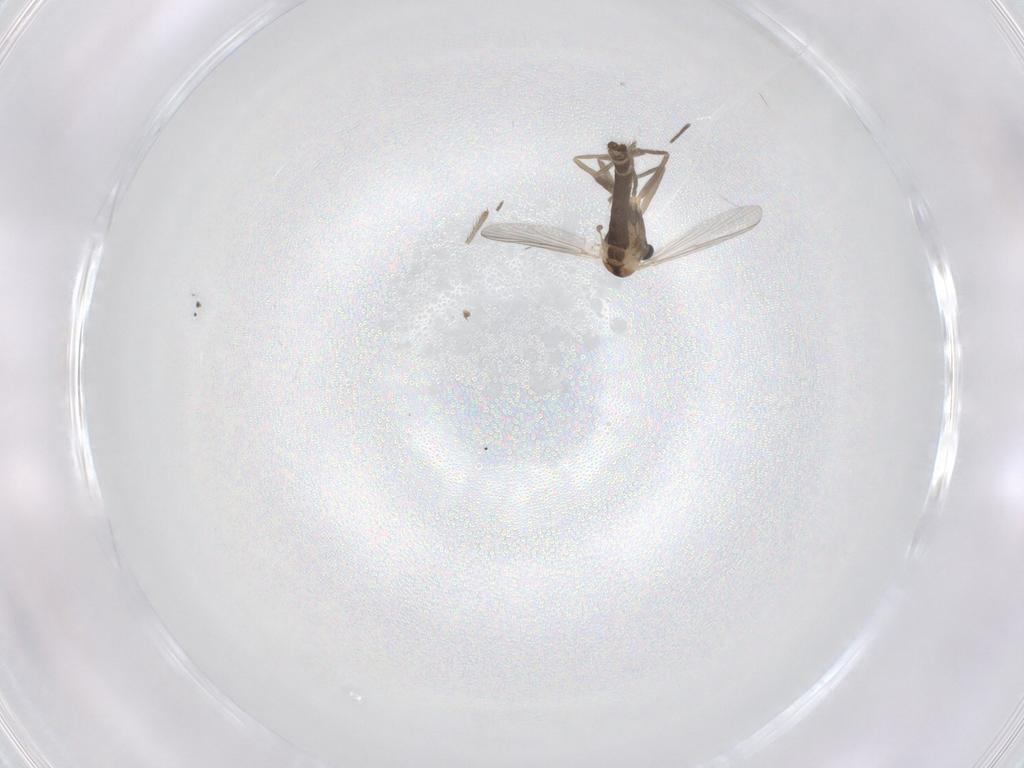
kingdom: Animalia
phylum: Arthropoda
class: Insecta
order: Diptera
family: Chironomidae
